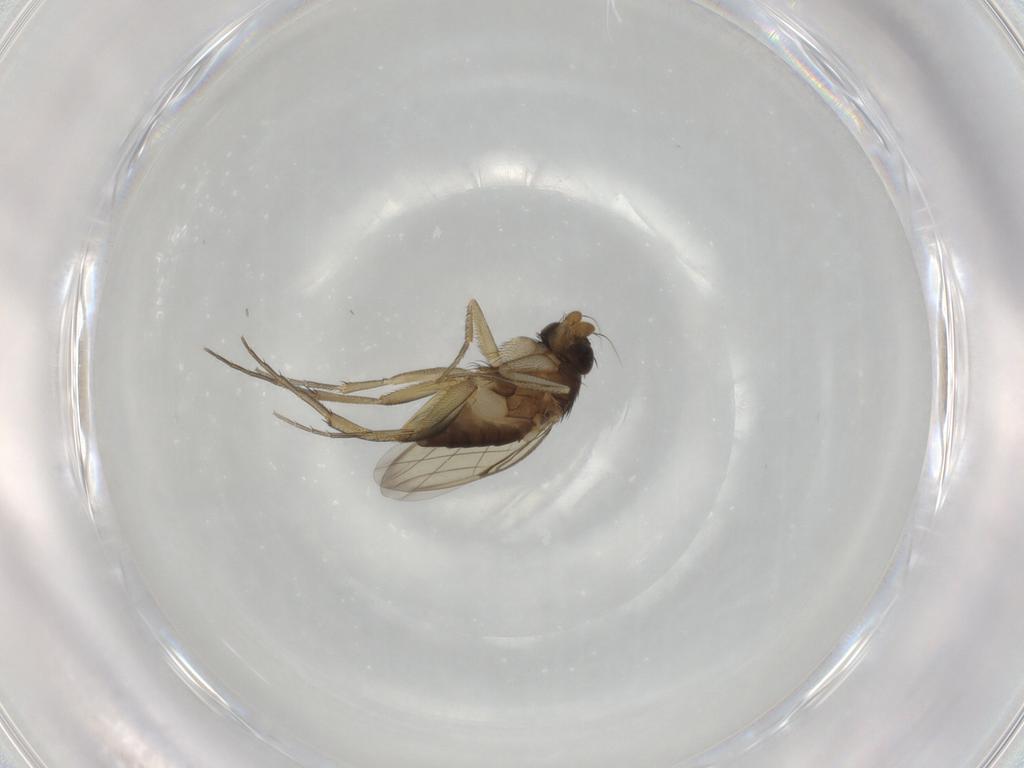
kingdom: Animalia
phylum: Arthropoda
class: Insecta
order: Diptera
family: Phoridae
